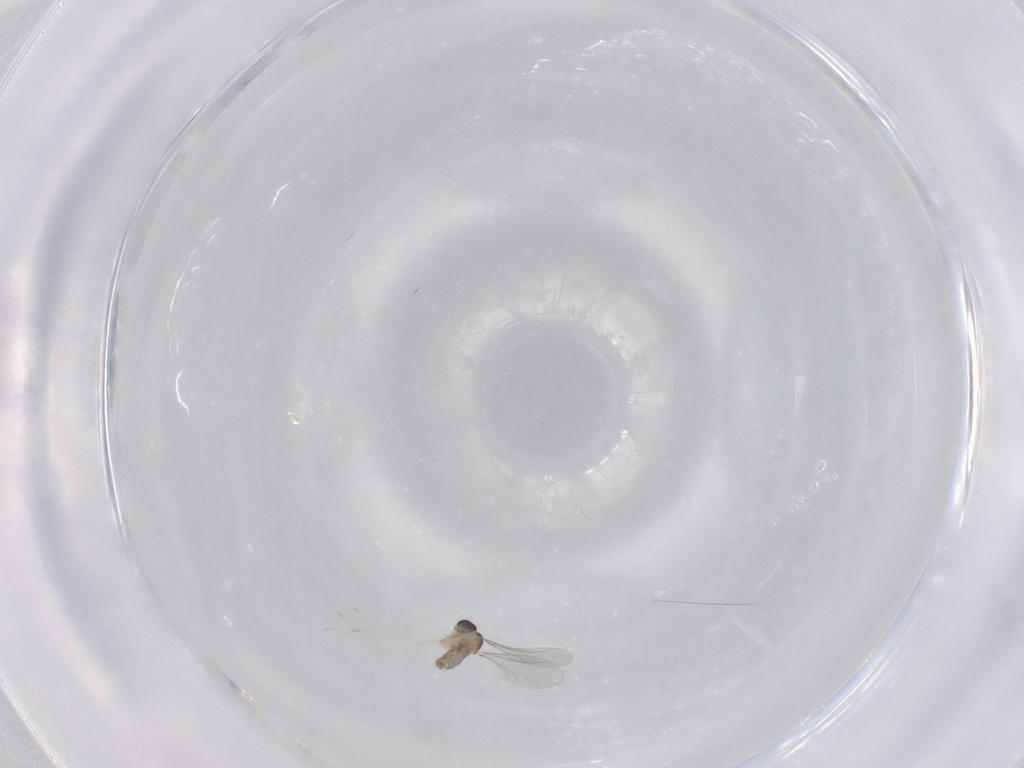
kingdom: Animalia
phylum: Arthropoda
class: Insecta
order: Diptera
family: Cecidomyiidae
